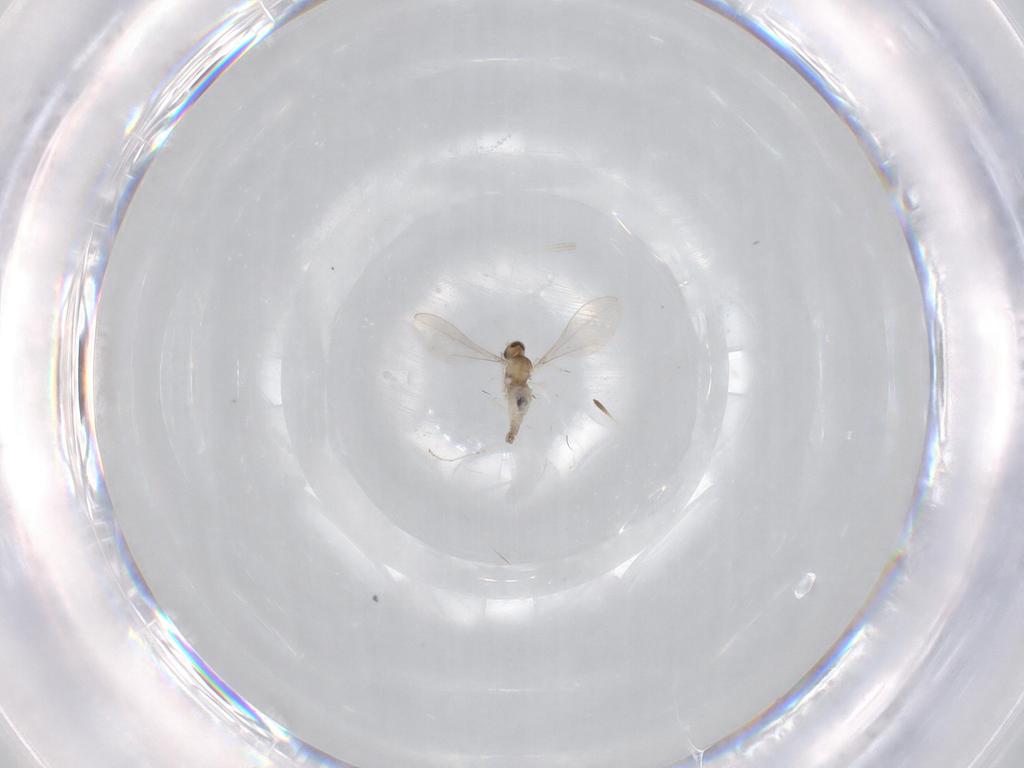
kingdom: Animalia
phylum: Arthropoda
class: Insecta
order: Diptera
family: Cecidomyiidae
